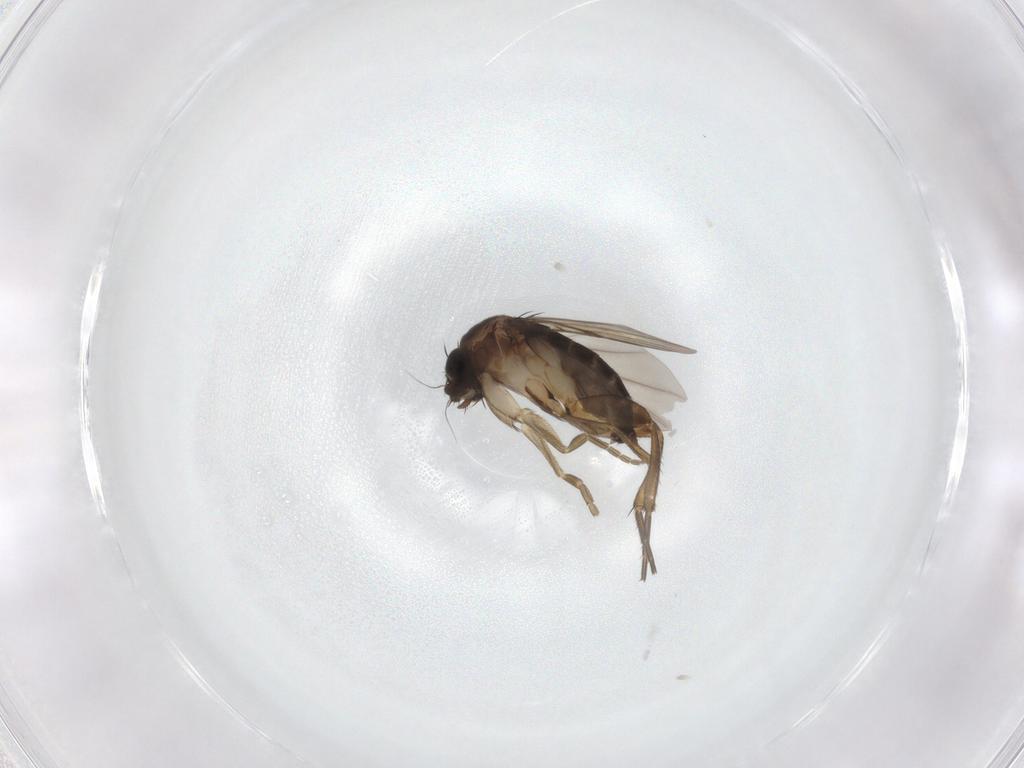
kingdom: Animalia
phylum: Arthropoda
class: Insecta
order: Diptera
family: Phoridae
